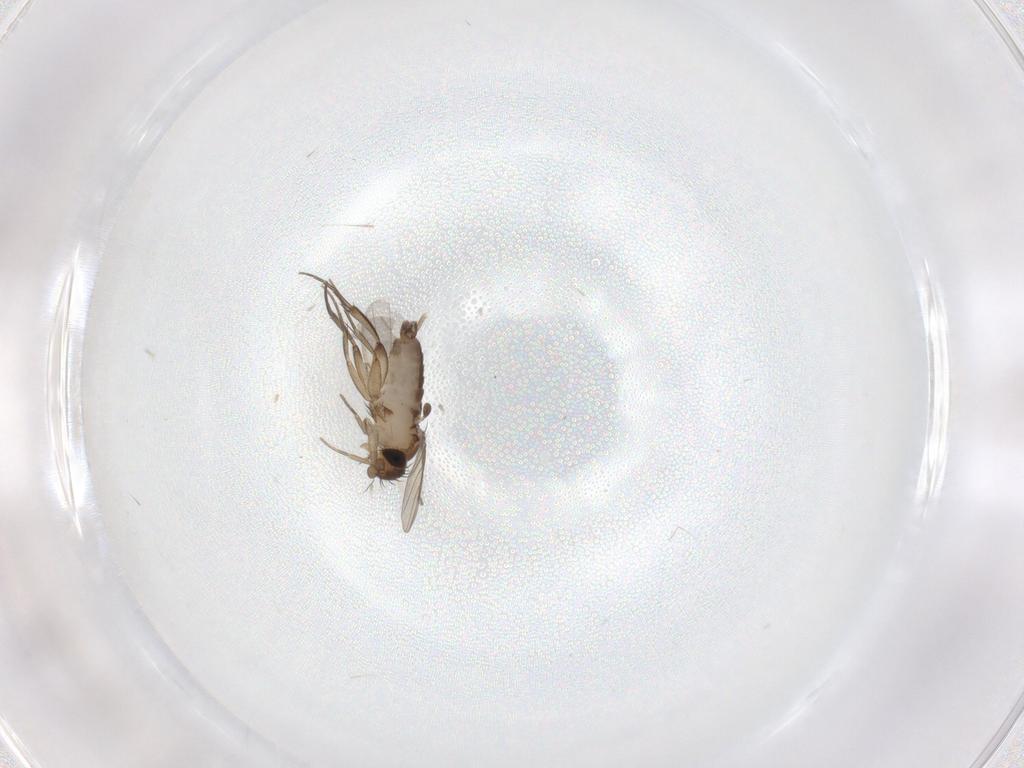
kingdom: Animalia
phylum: Arthropoda
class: Insecta
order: Diptera
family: Phoridae
